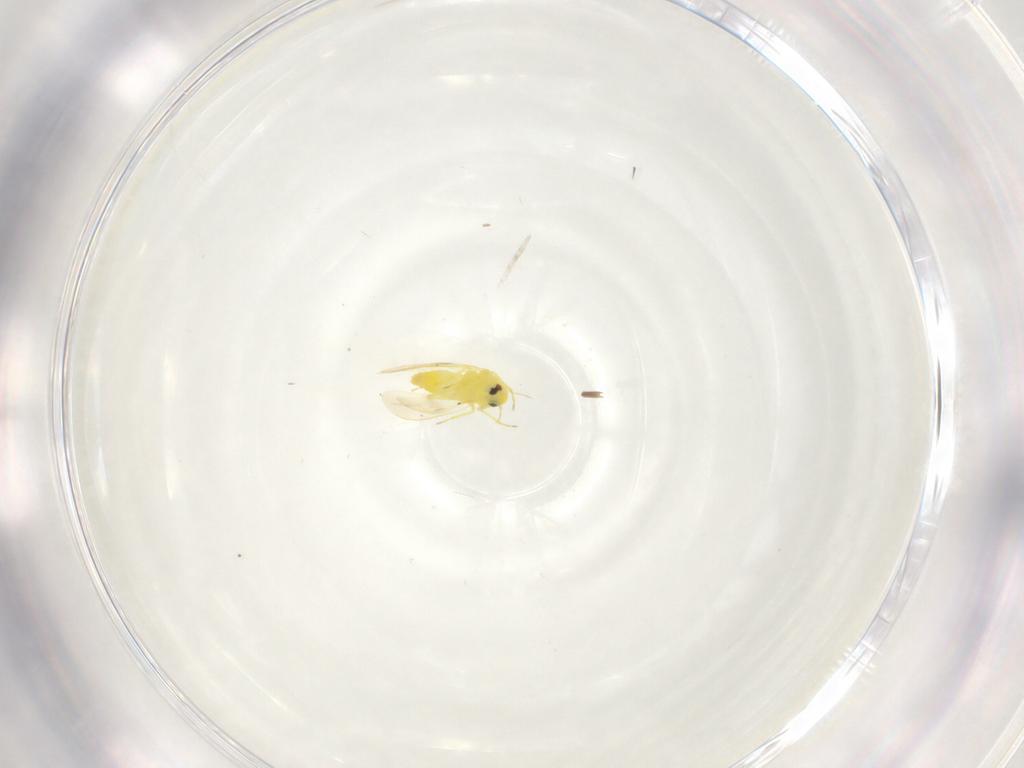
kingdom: Animalia
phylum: Arthropoda
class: Insecta
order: Hemiptera
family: Aleyrodidae
